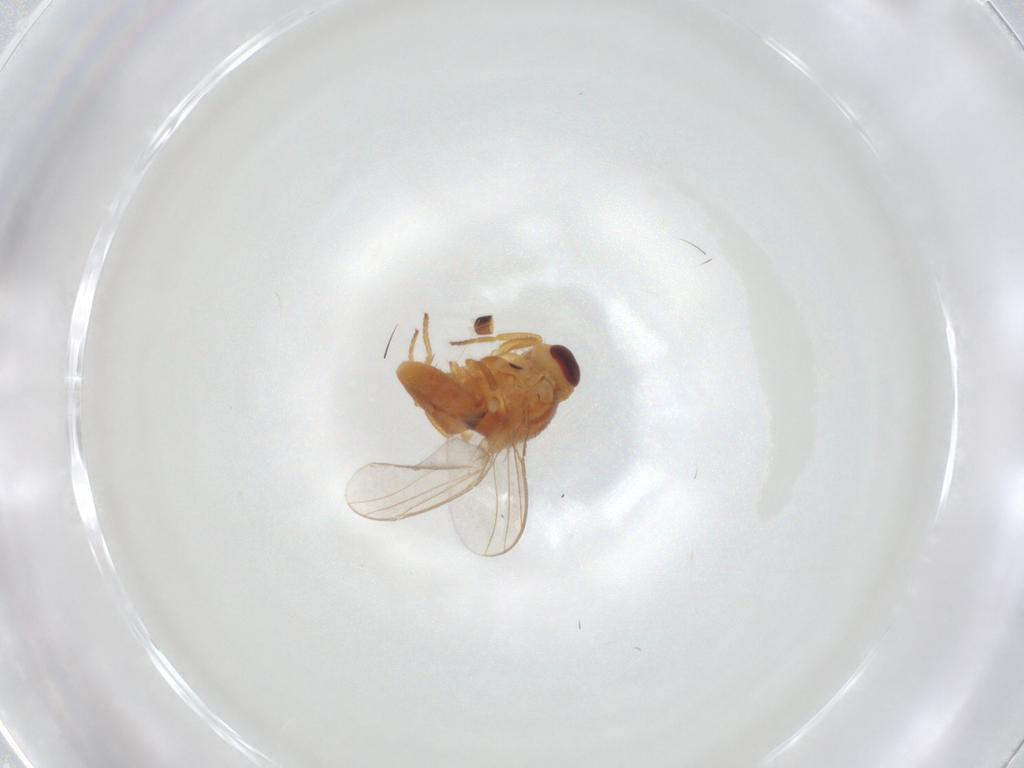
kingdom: Animalia
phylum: Arthropoda
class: Insecta
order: Diptera
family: Chloropidae
